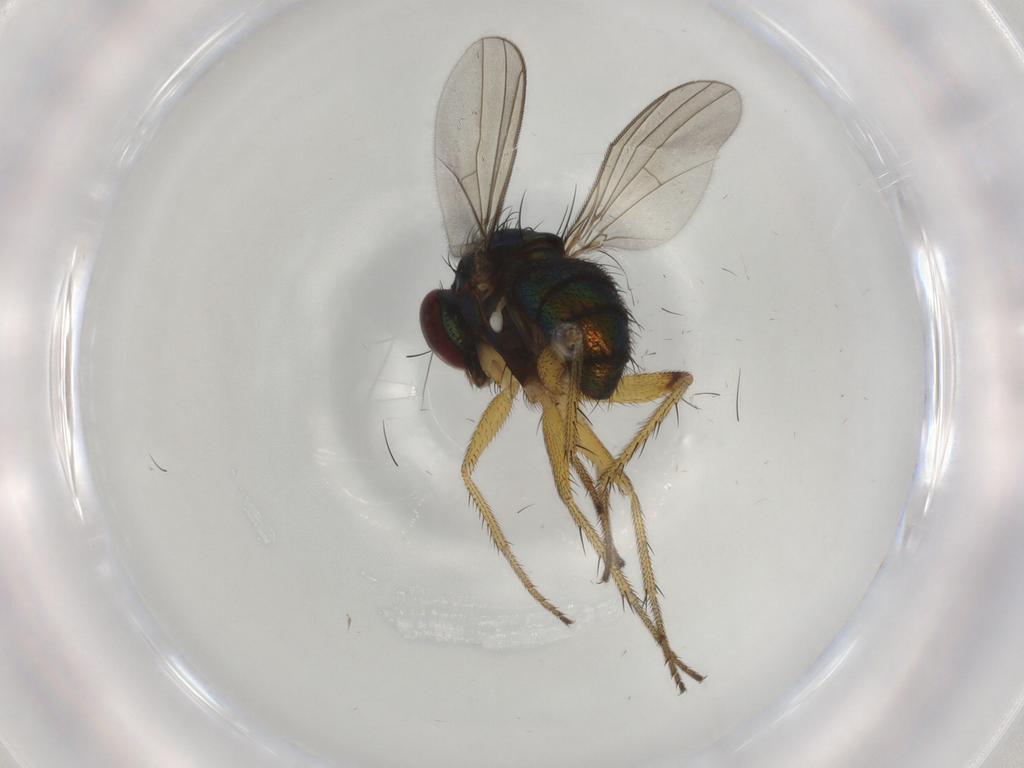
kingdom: Animalia
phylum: Arthropoda
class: Insecta
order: Diptera
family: Dolichopodidae
